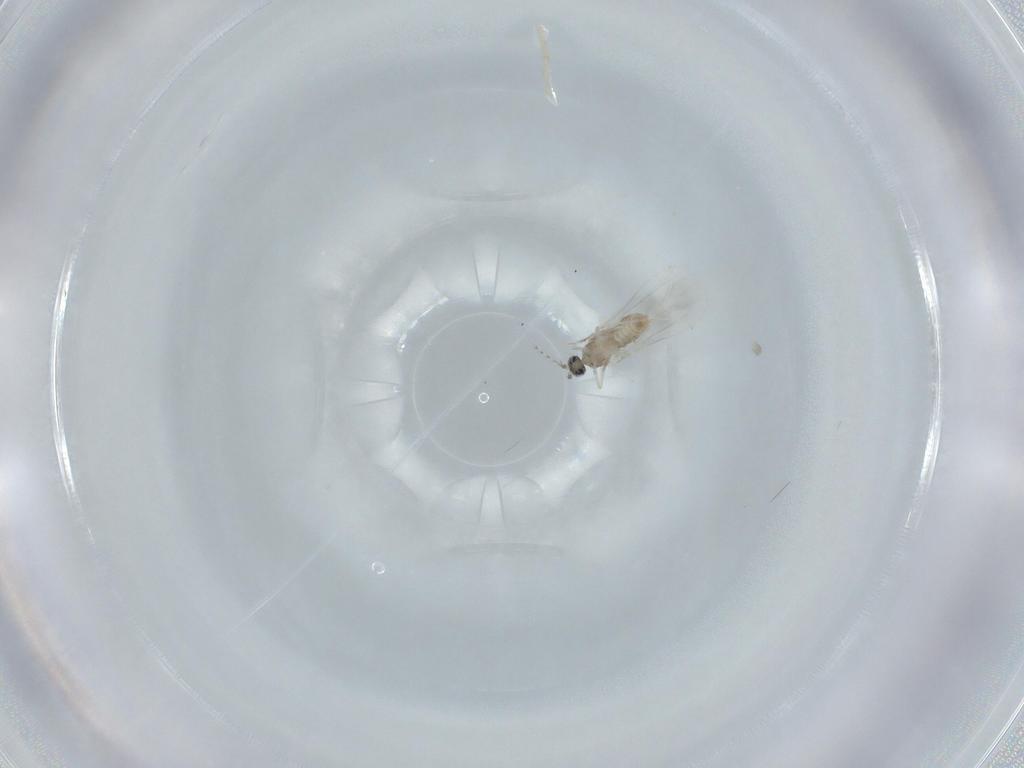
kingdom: Animalia
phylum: Arthropoda
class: Insecta
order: Diptera
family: Cecidomyiidae
